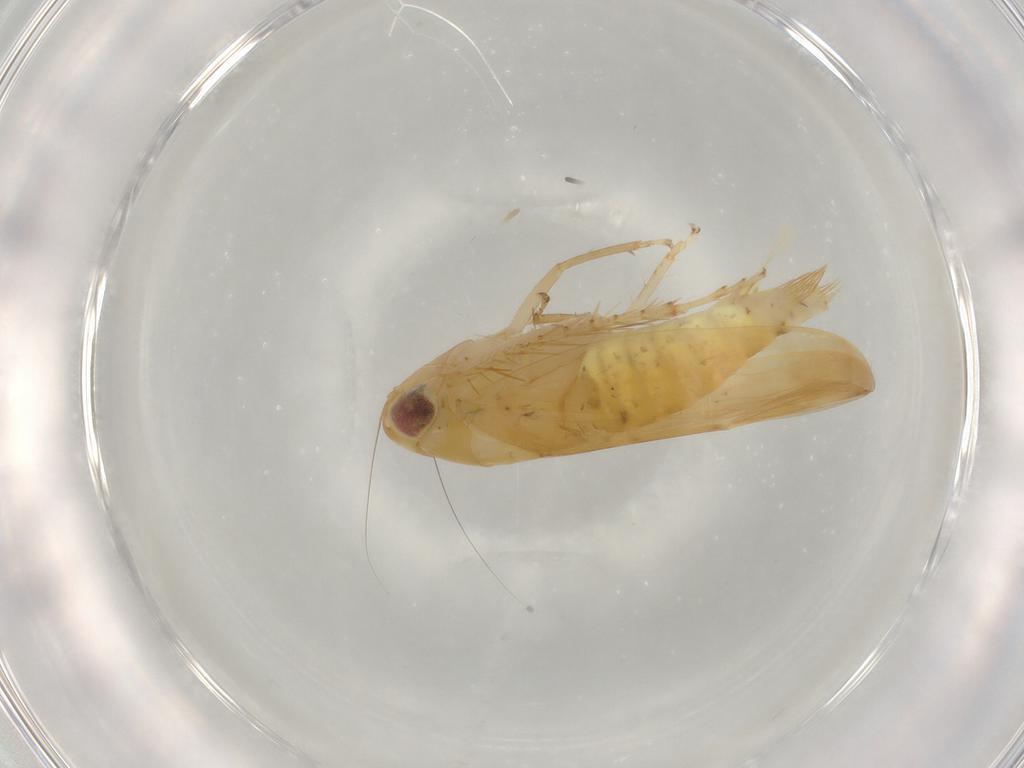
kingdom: Animalia
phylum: Arthropoda
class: Insecta
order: Hemiptera
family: Cicadellidae
